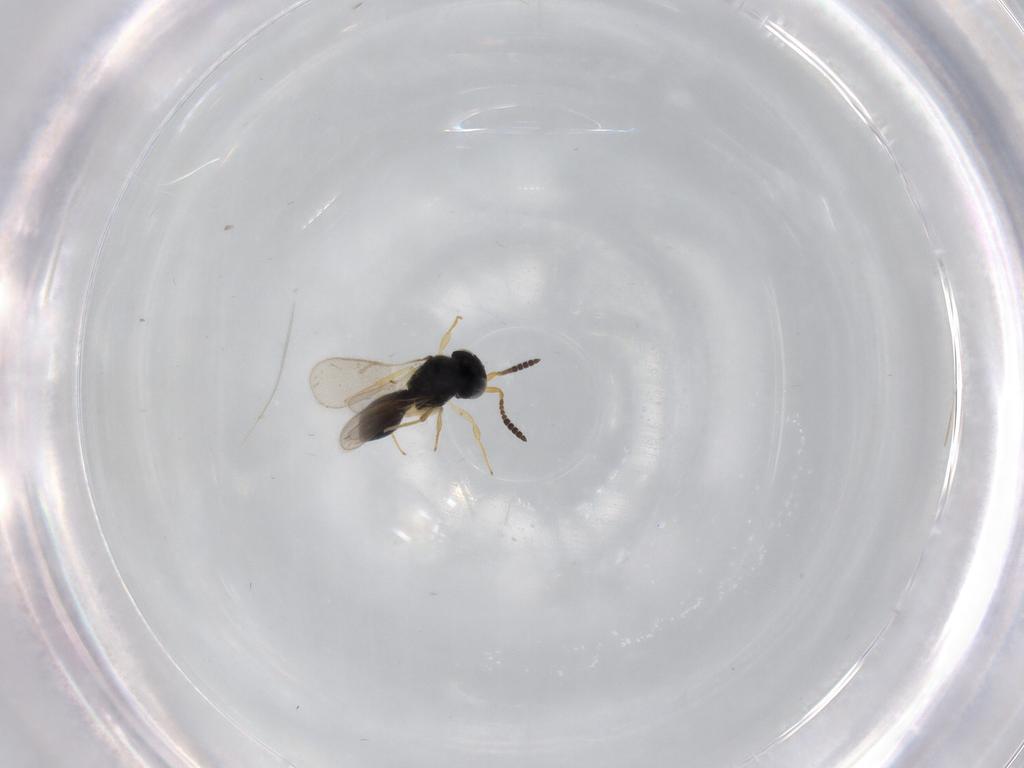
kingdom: Animalia
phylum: Arthropoda
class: Insecta
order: Hymenoptera
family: Scelionidae
